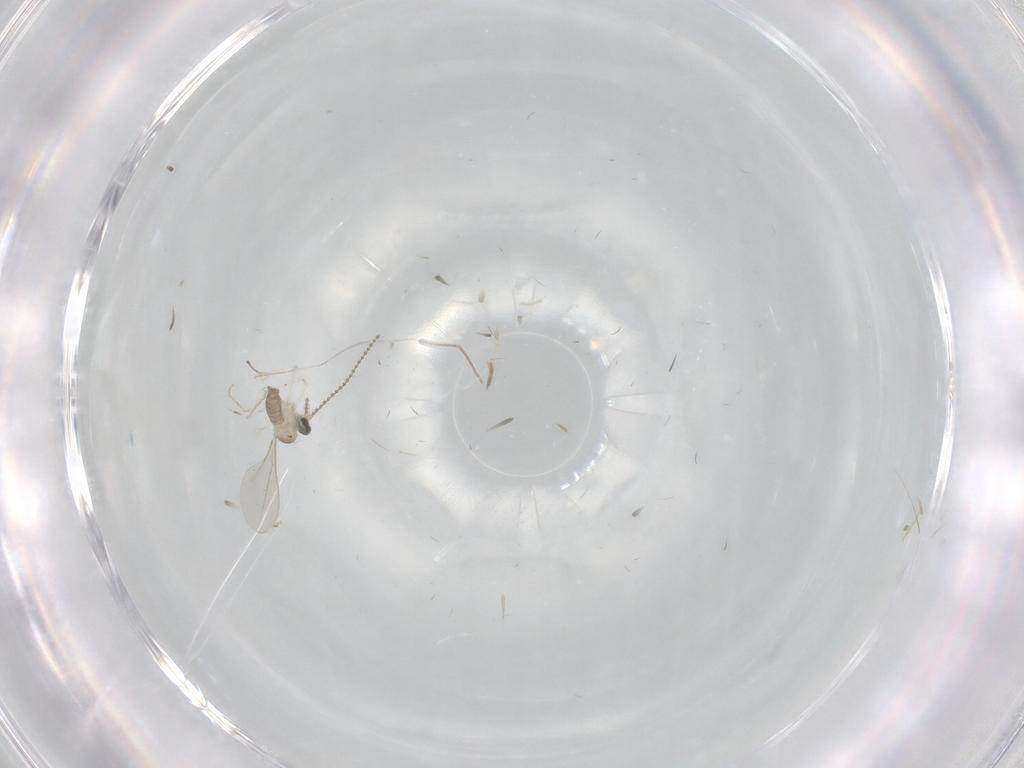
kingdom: Animalia
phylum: Arthropoda
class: Insecta
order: Diptera
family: Cecidomyiidae
